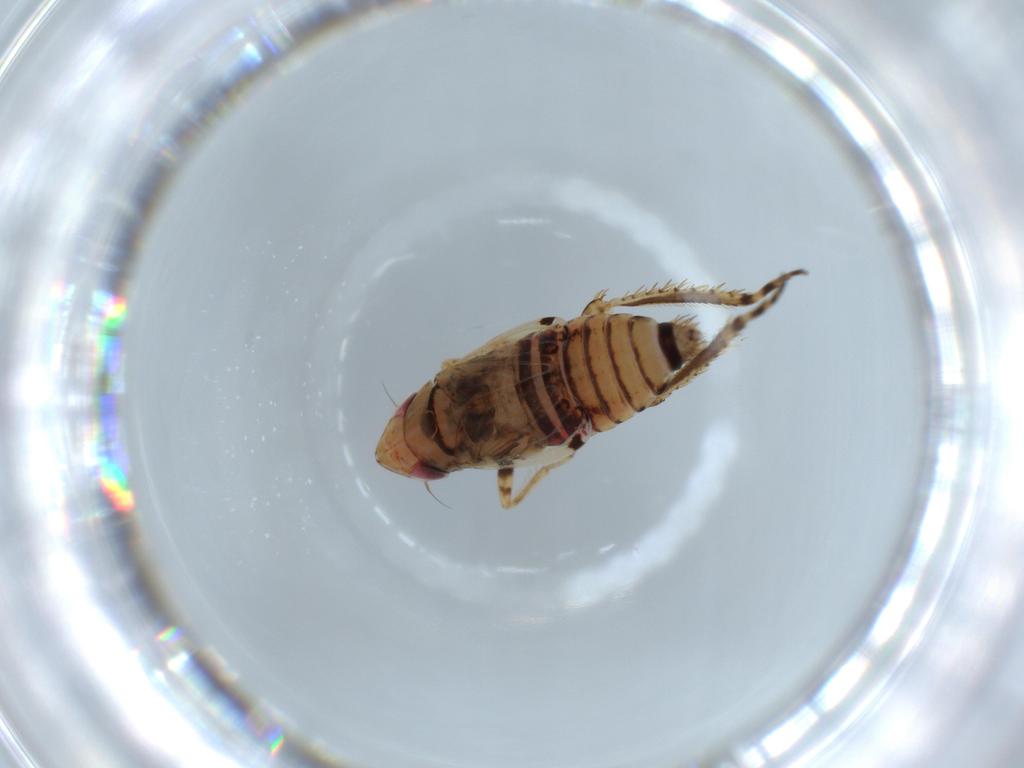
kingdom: Animalia
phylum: Arthropoda
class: Insecta
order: Hemiptera
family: Cicadellidae
